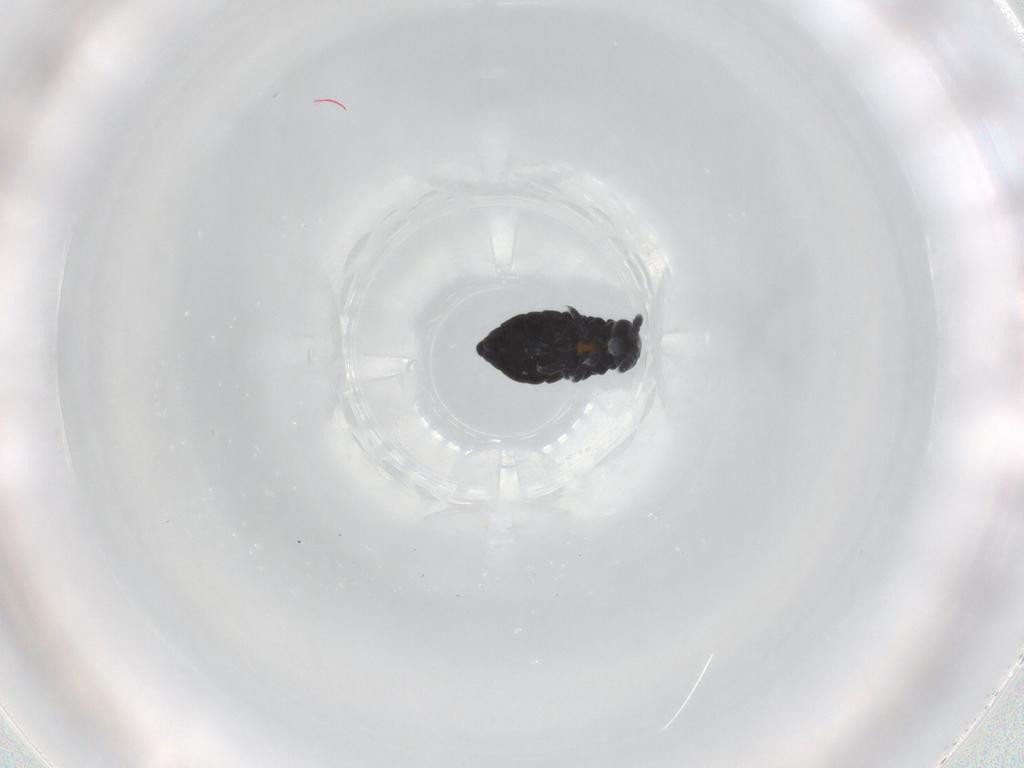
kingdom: Animalia
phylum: Arthropoda
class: Collembola
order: Poduromorpha
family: Hypogastruridae
